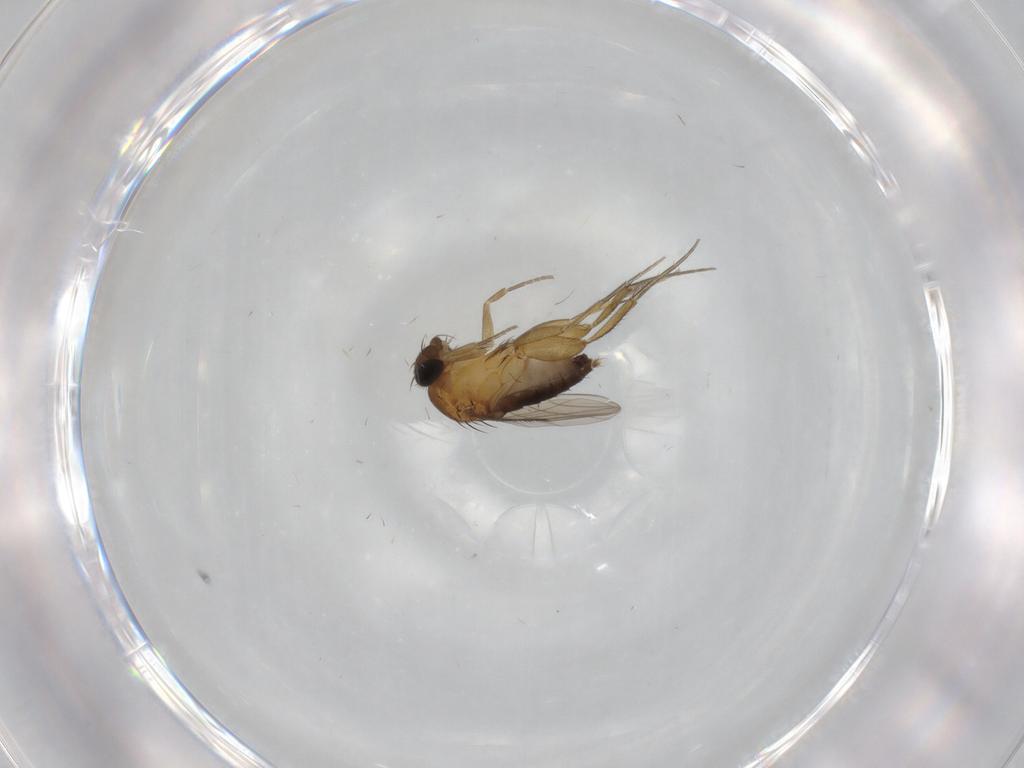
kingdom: Animalia
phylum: Arthropoda
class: Insecta
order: Diptera
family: Phoridae
